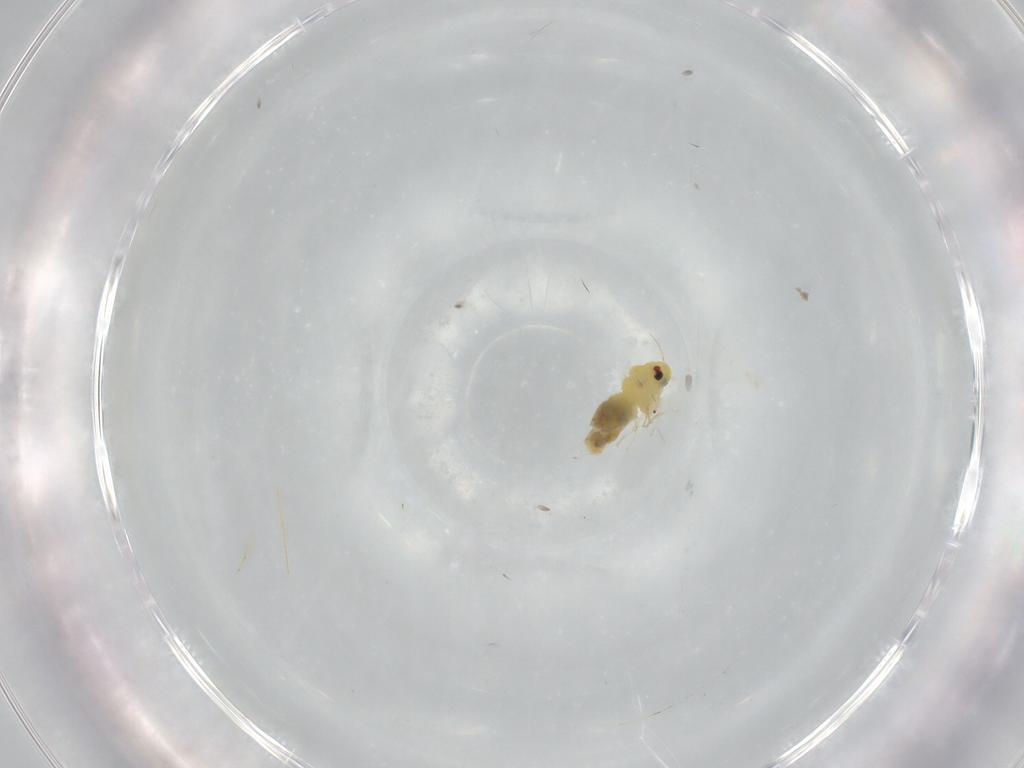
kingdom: Animalia
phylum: Arthropoda
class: Insecta
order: Hemiptera
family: Aleyrodidae
